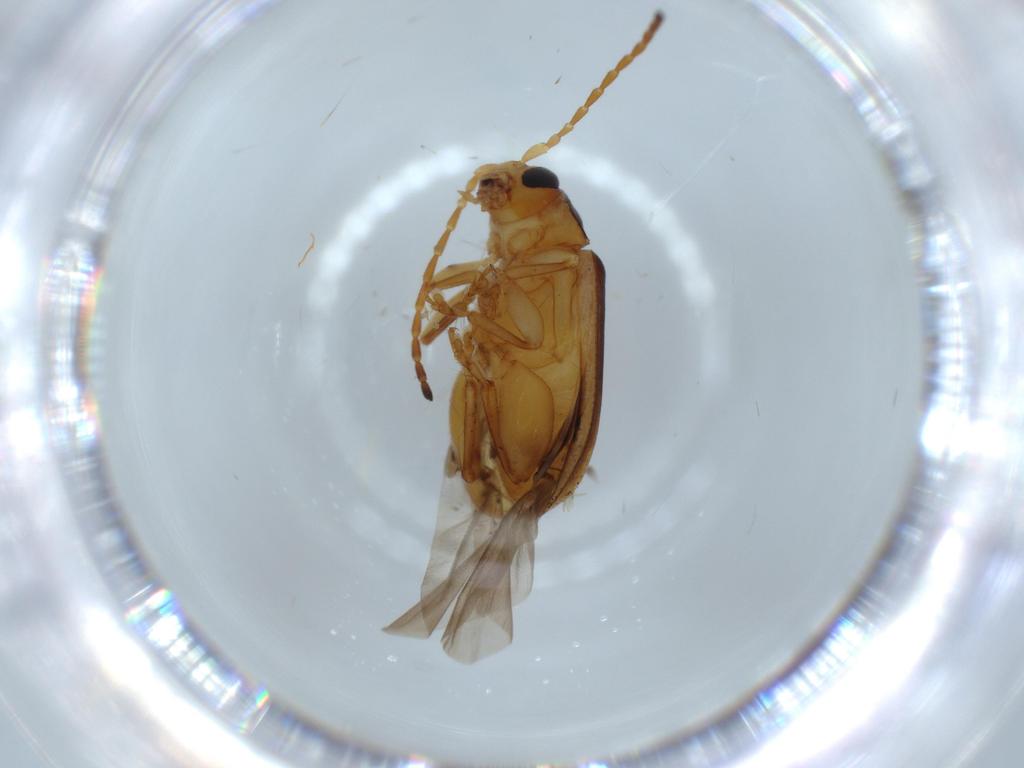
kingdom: Animalia
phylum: Arthropoda
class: Insecta
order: Coleoptera
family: Chrysomelidae
